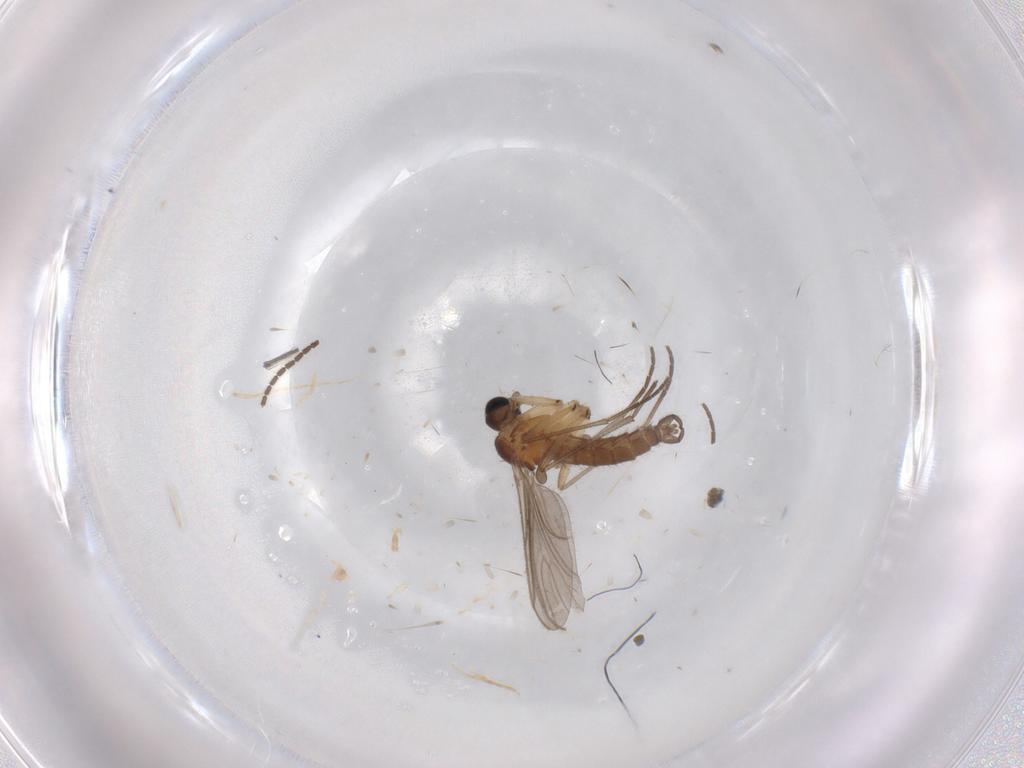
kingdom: Animalia
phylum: Arthropoda
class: Insecta
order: Diptera
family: Sciaridae
